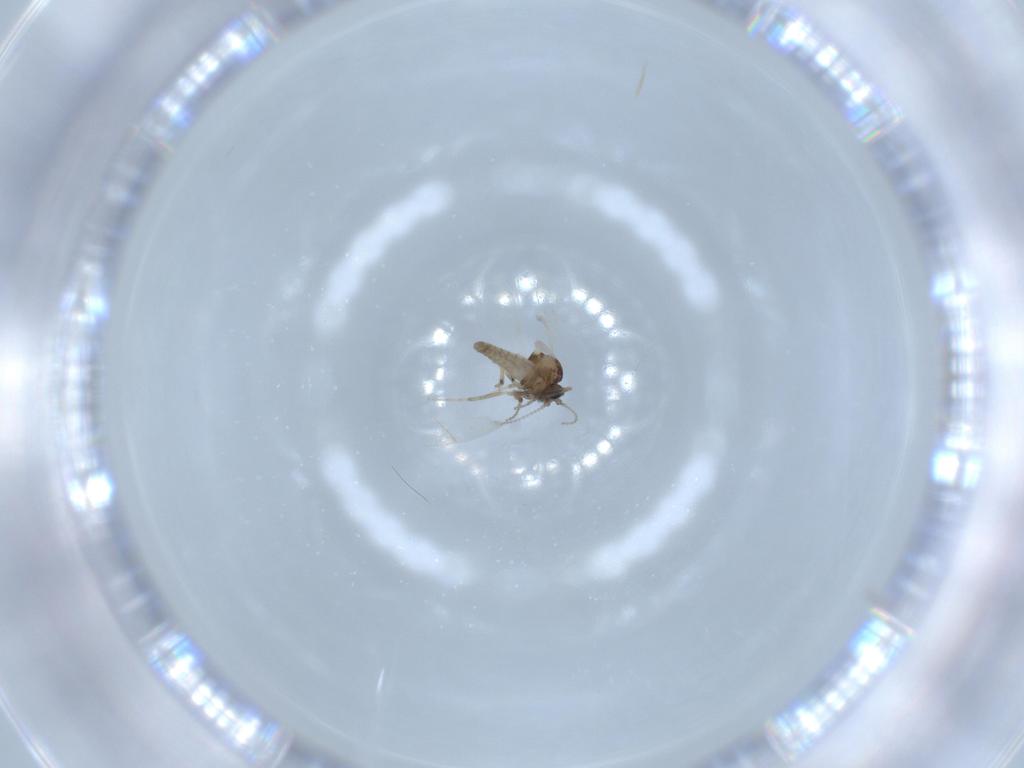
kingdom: Animalia
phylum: Arthropoda
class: Insecta
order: Diptera
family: Ceratopogonidae
